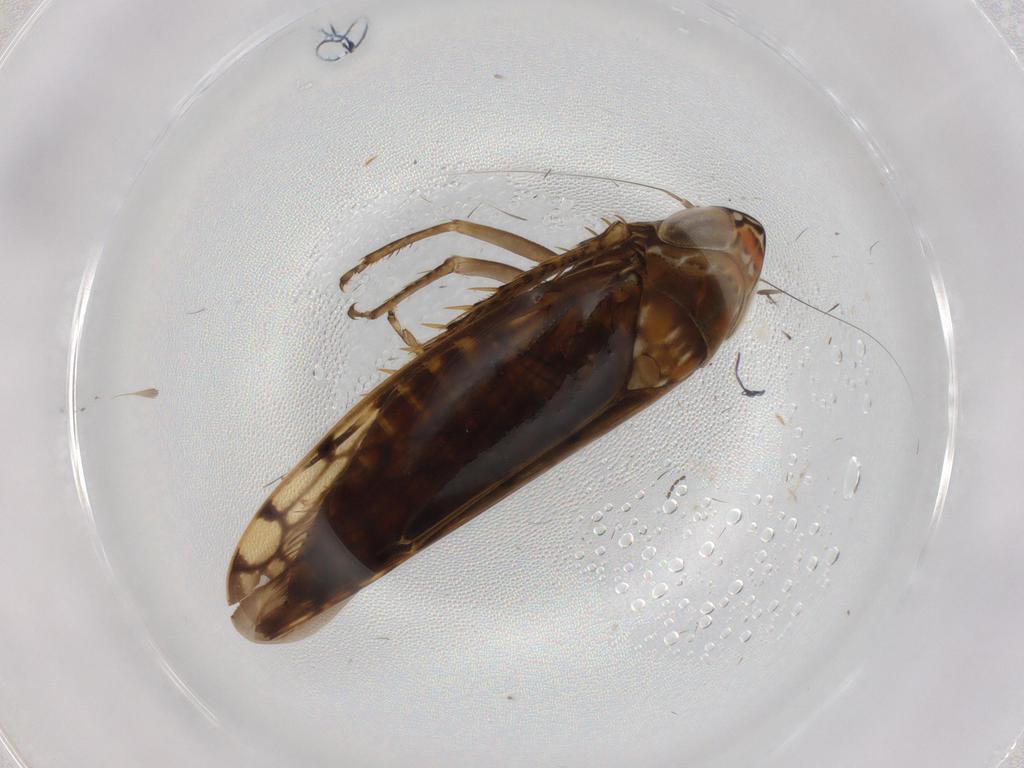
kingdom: Animalia
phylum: Arthropoda
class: Insecta
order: Hemiptera
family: Cicadellidae
